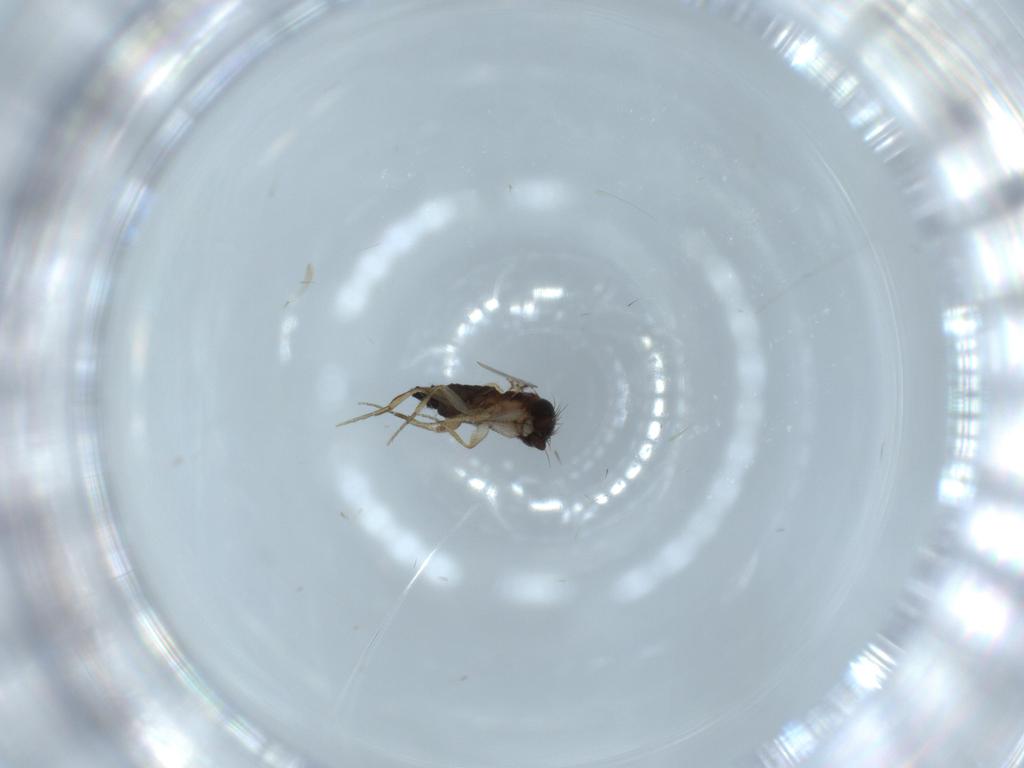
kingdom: Animalia
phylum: Arthropoda
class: Insecta
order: Diptera
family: Phoridae
